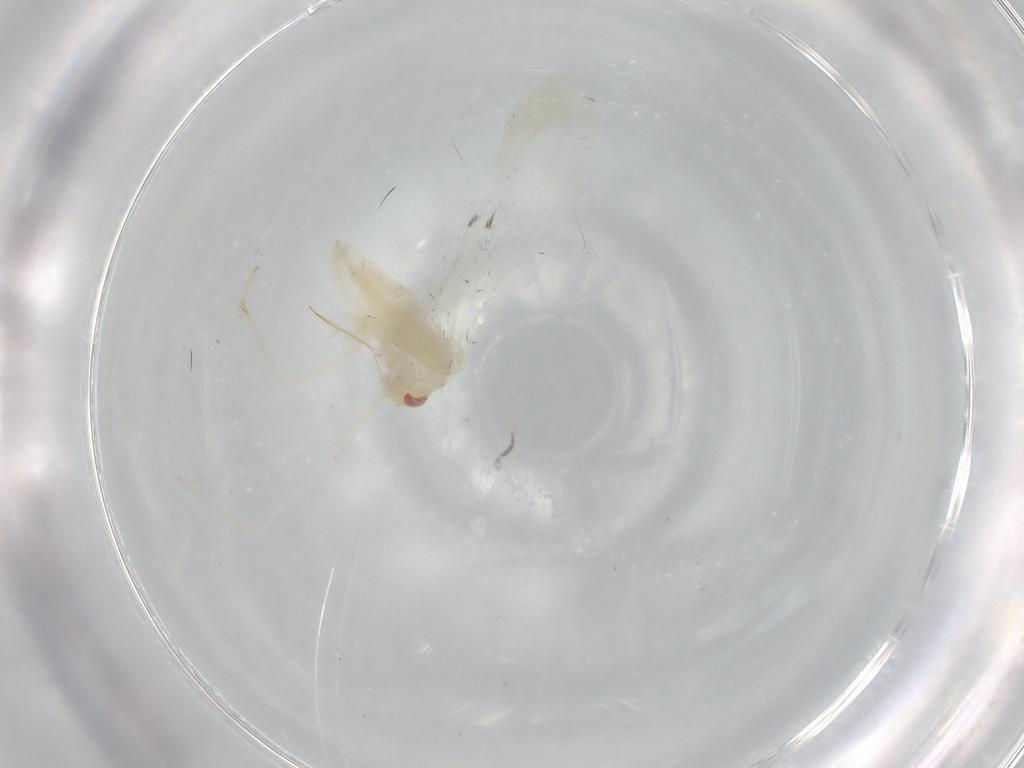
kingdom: Animalia
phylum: Arthropoda
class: Insecta
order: Hemiptera
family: Miridae
